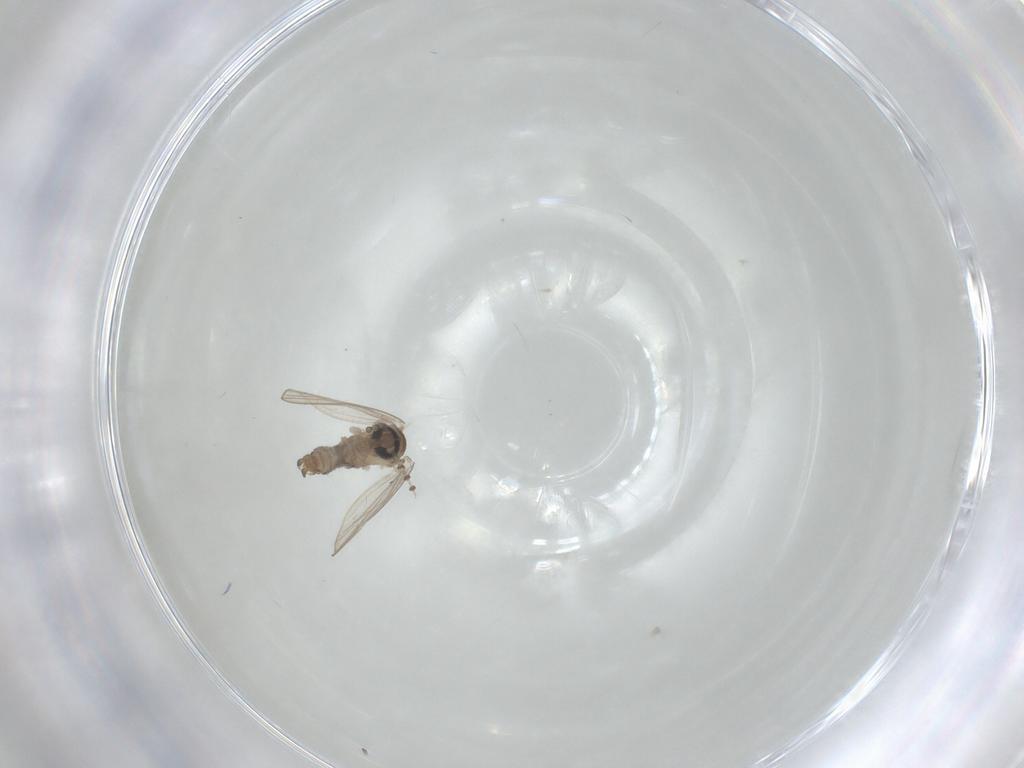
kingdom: Animalia
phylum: Arthropoda
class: Insecta
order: Diptera
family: Psychodidae
